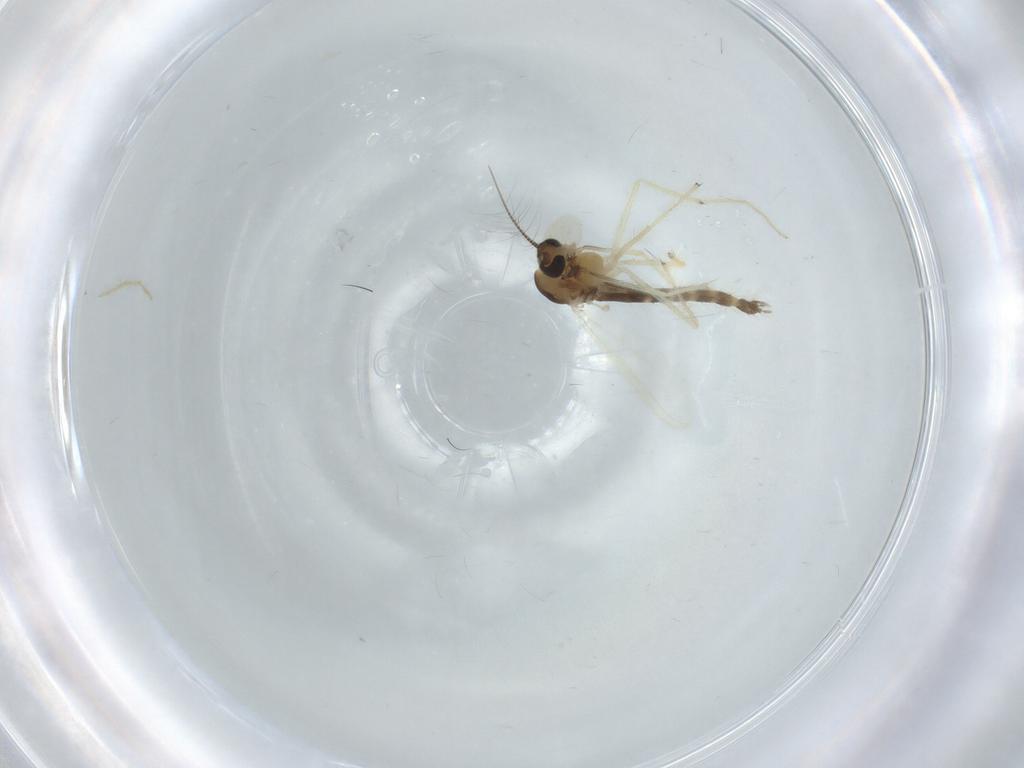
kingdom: Animalia
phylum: Arthropoda
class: Insecta
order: Diptera
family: Chironomidae
